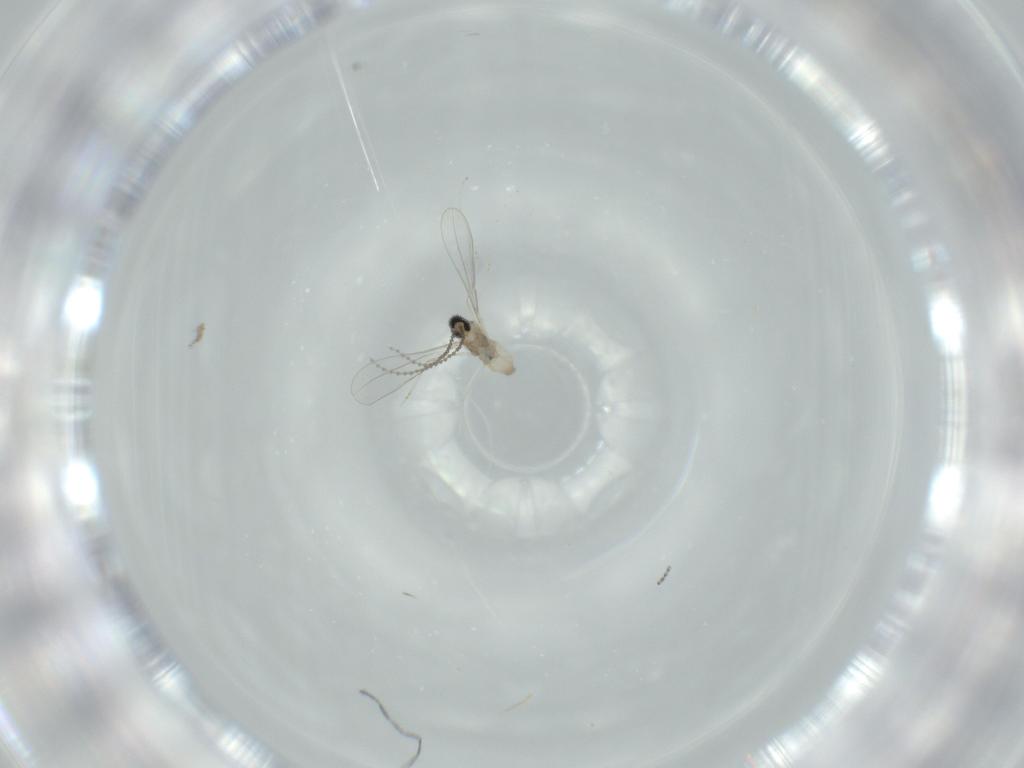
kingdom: Animalia
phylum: Arthropoda
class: Insecta
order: Diptera
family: Cecidomyiidae
